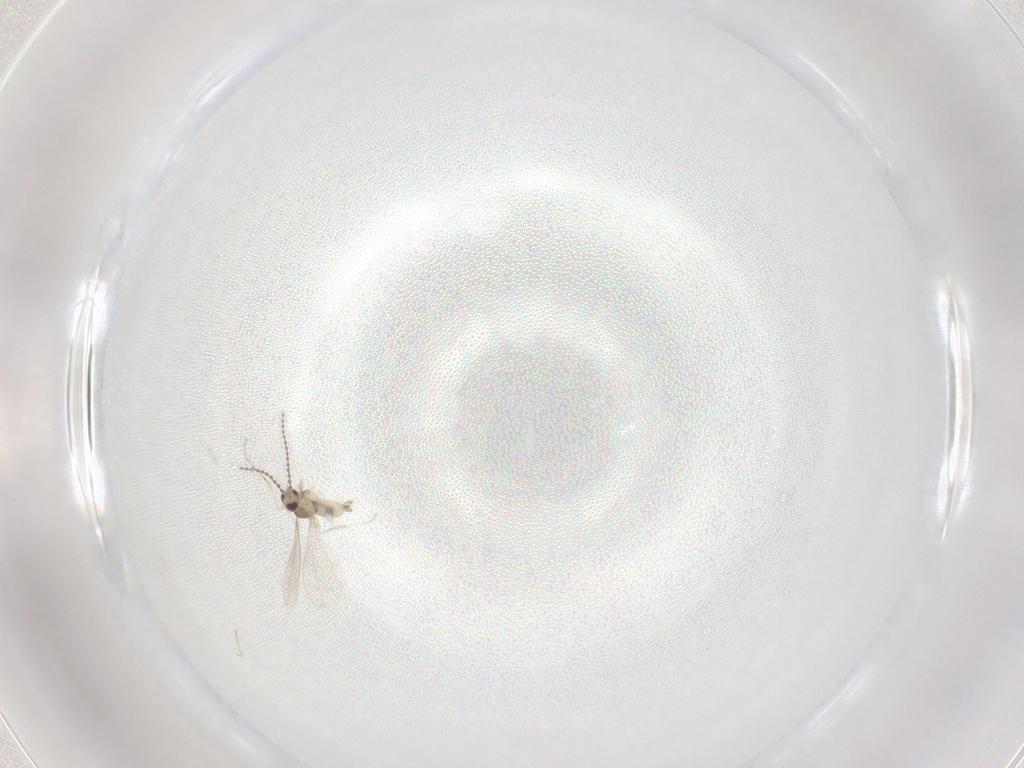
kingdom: Animalia
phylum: Arthropoda
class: Insecta
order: Diptera
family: Cecidomyiidae
